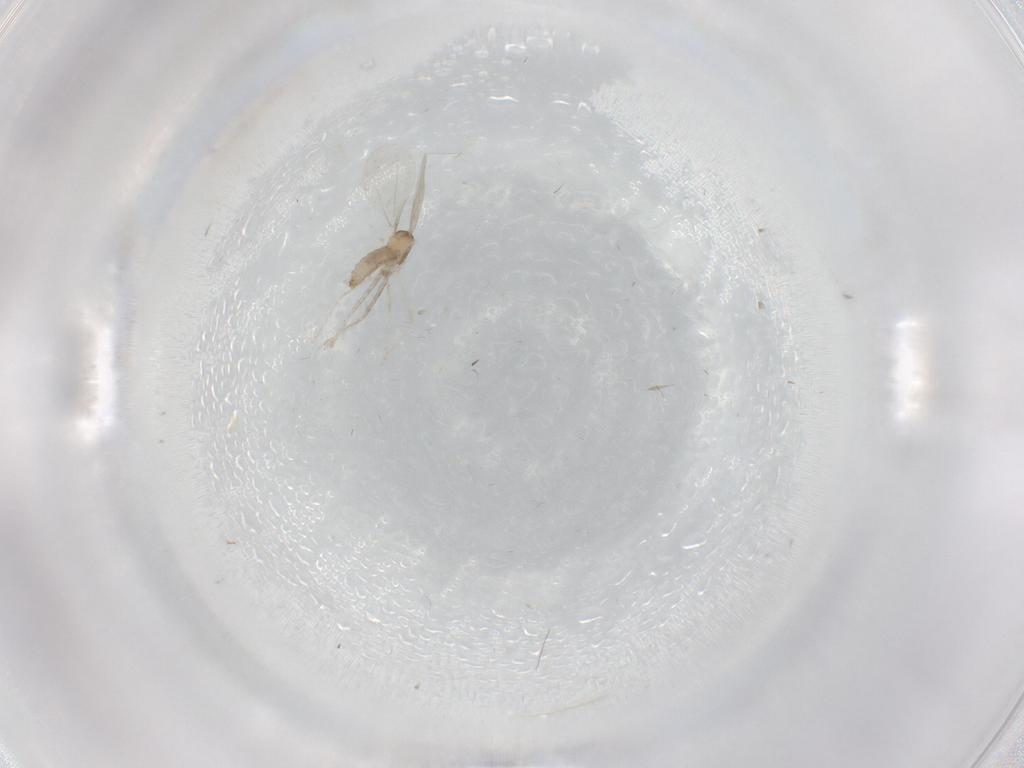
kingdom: Animalia
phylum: Arthropoda
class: Insecta
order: Diptera
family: Cecidomyiidae
